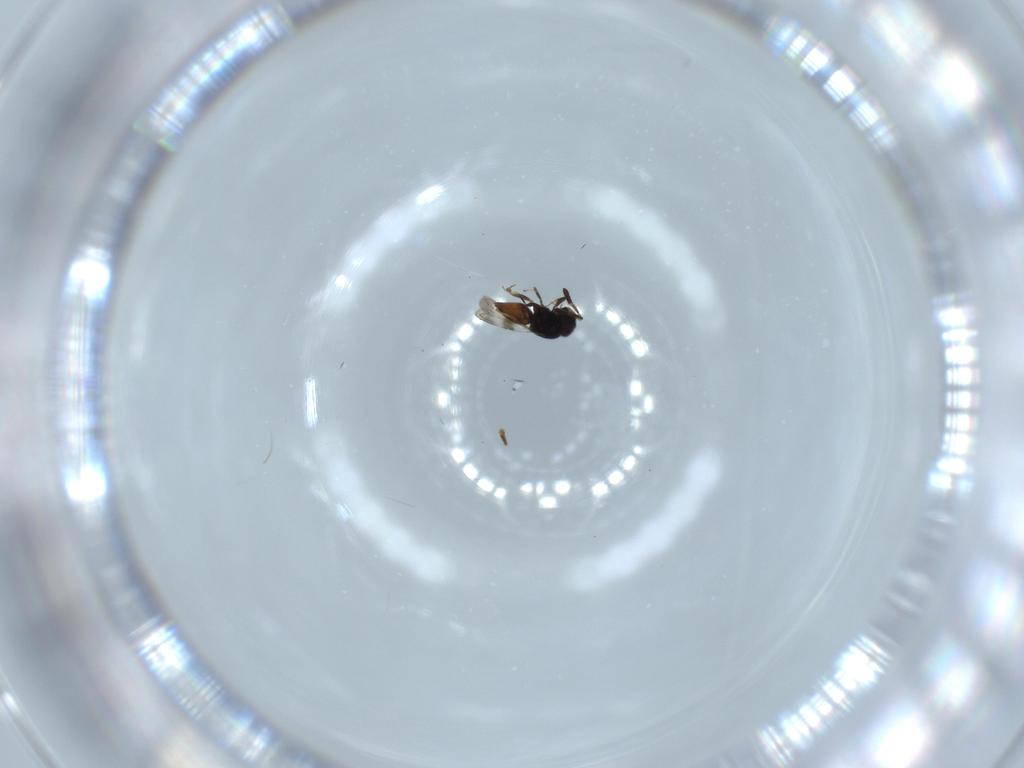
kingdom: Animalia
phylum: Arthropoda
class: Insecta
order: Hymenoptera
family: Ceraphronidae
